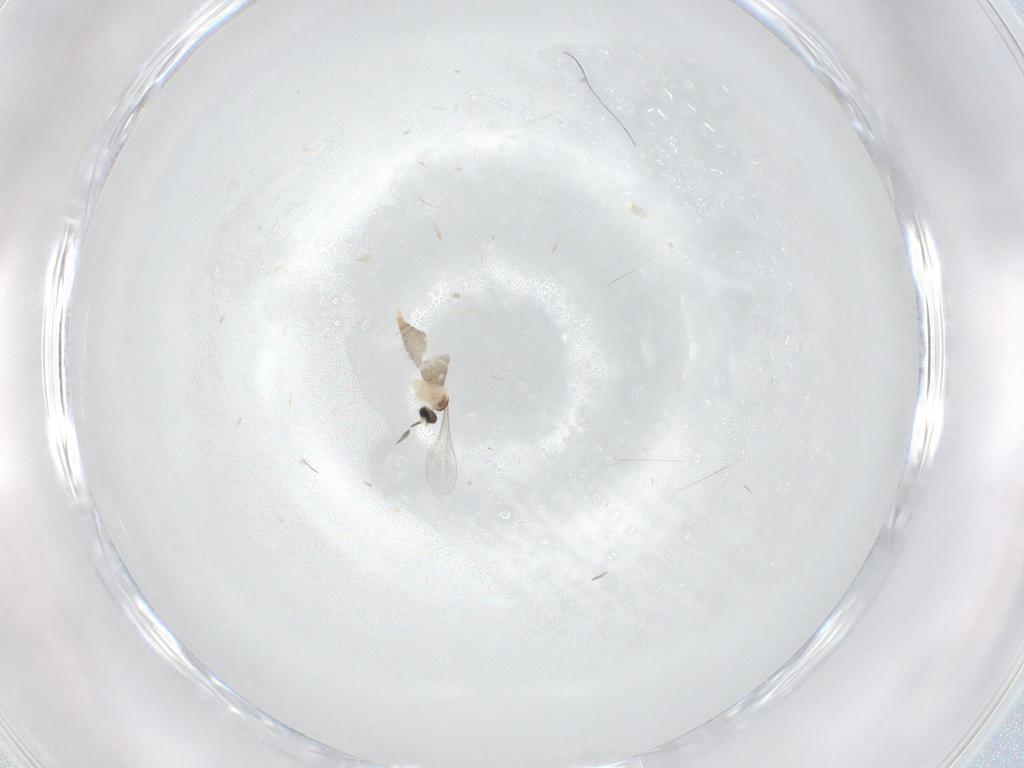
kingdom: Animalia
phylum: Arthropoda
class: Insecta
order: Diptera
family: Cecidomyiidae
